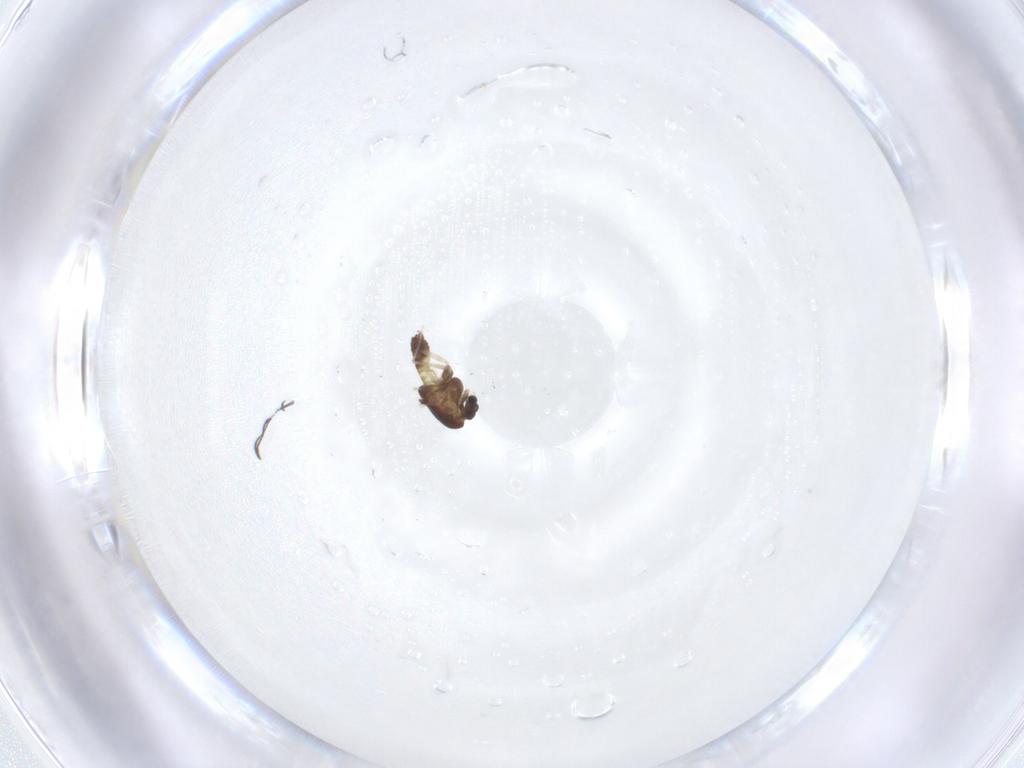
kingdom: Animalia
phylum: Arthropoda
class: Insecta
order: Diptera
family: Chironomidae
